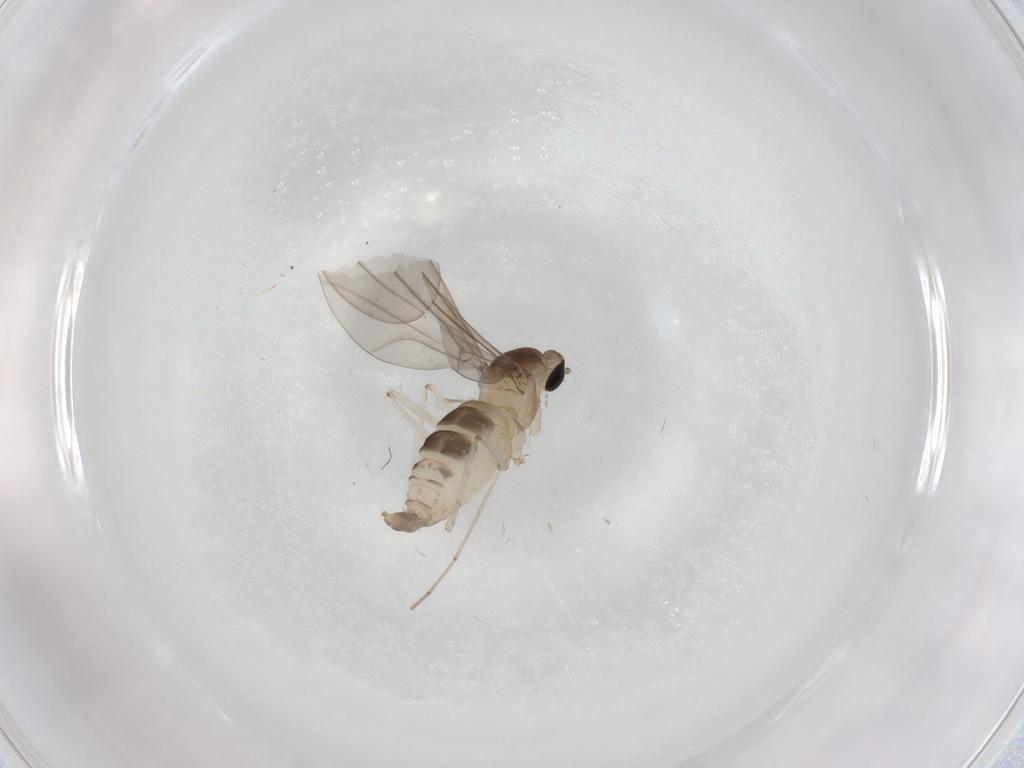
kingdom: Animalia
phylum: Arthropoda
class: Insecta
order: Diptera
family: Cecidomyiidae
